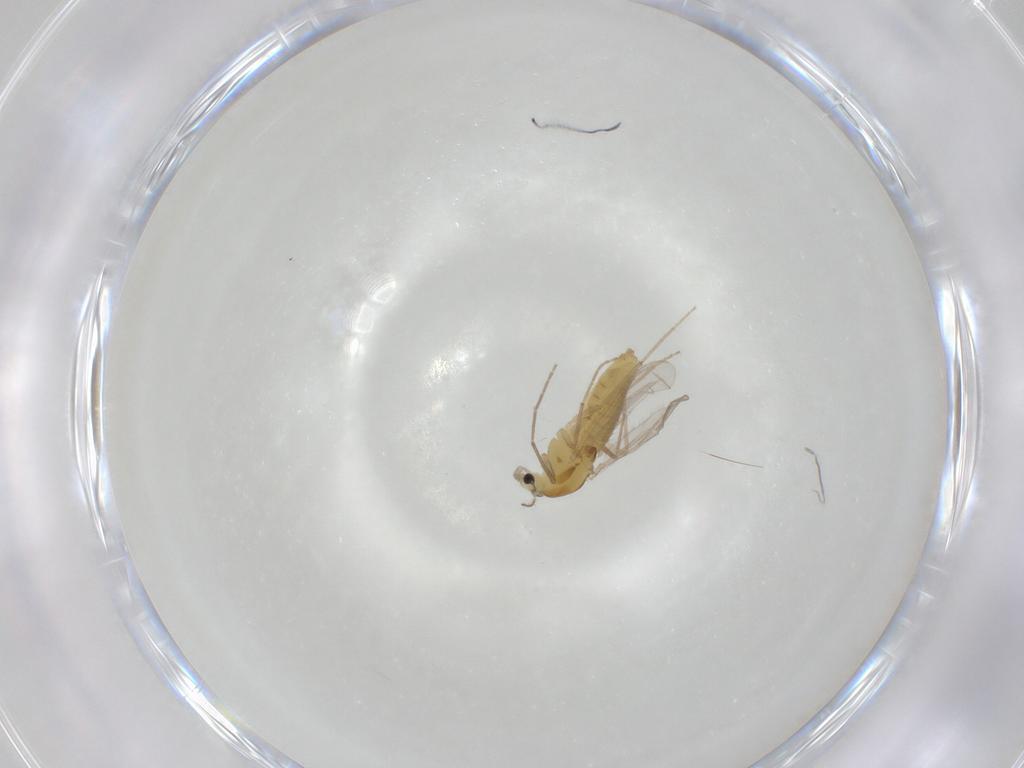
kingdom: Animalia
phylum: Arthropoda
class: Insecta
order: Diptera
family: Chironomidae
